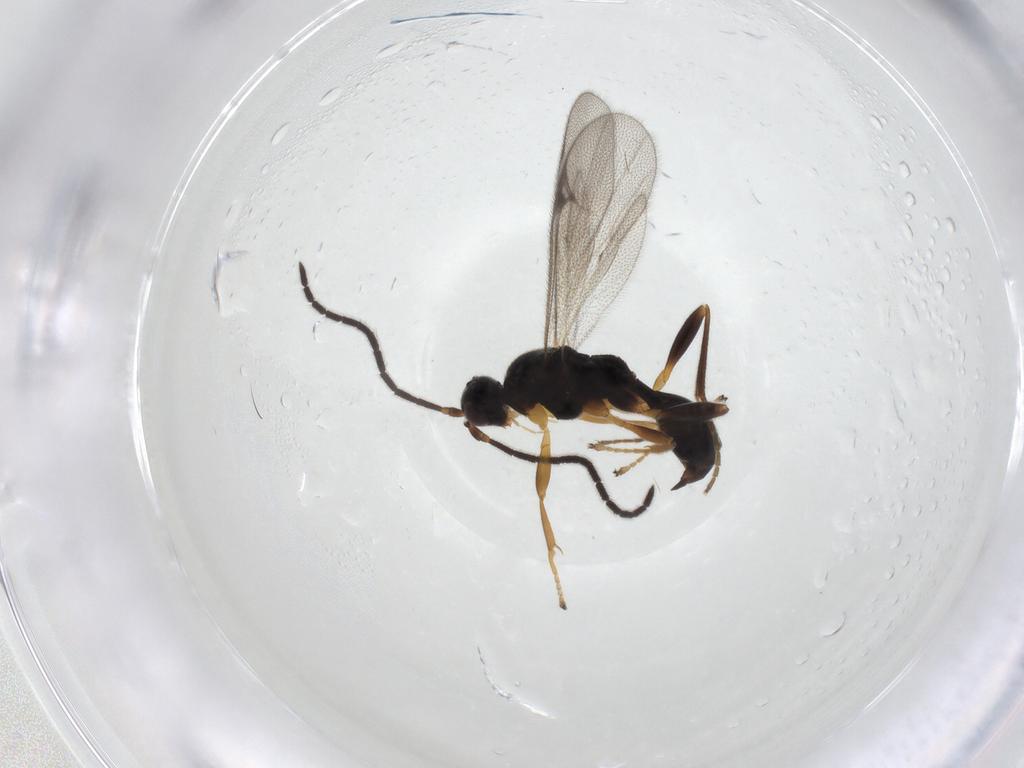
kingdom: Animalia
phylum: Arthropoda
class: Insecta
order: Hymenoptera
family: Proctotrupidae
